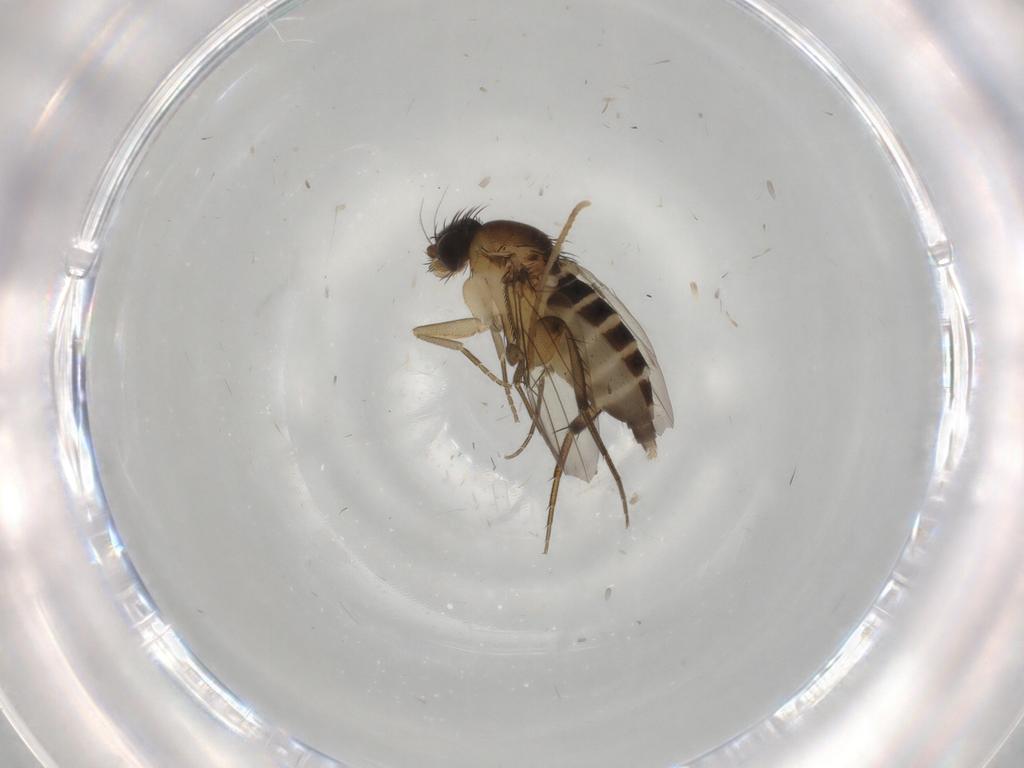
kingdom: Animalia
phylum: Arthropoda
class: Insecta
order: Diptera
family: Phoridae
